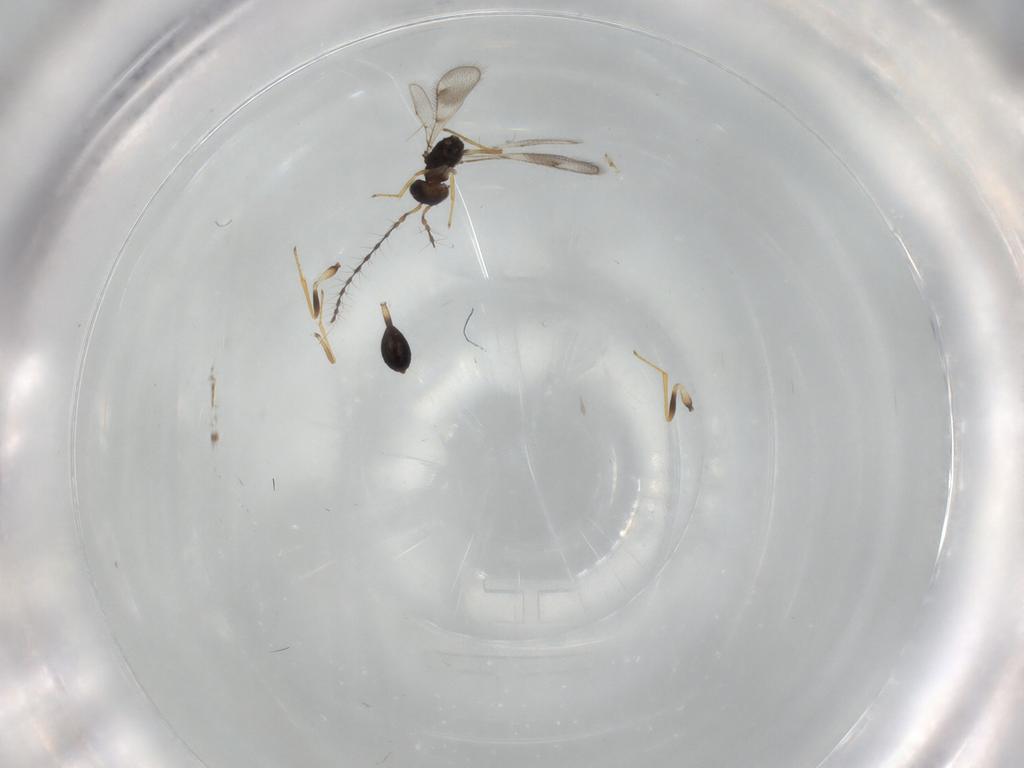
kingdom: Animalia
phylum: Arthropoda
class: Insecta
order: Hymenoptera
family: Diparidae
